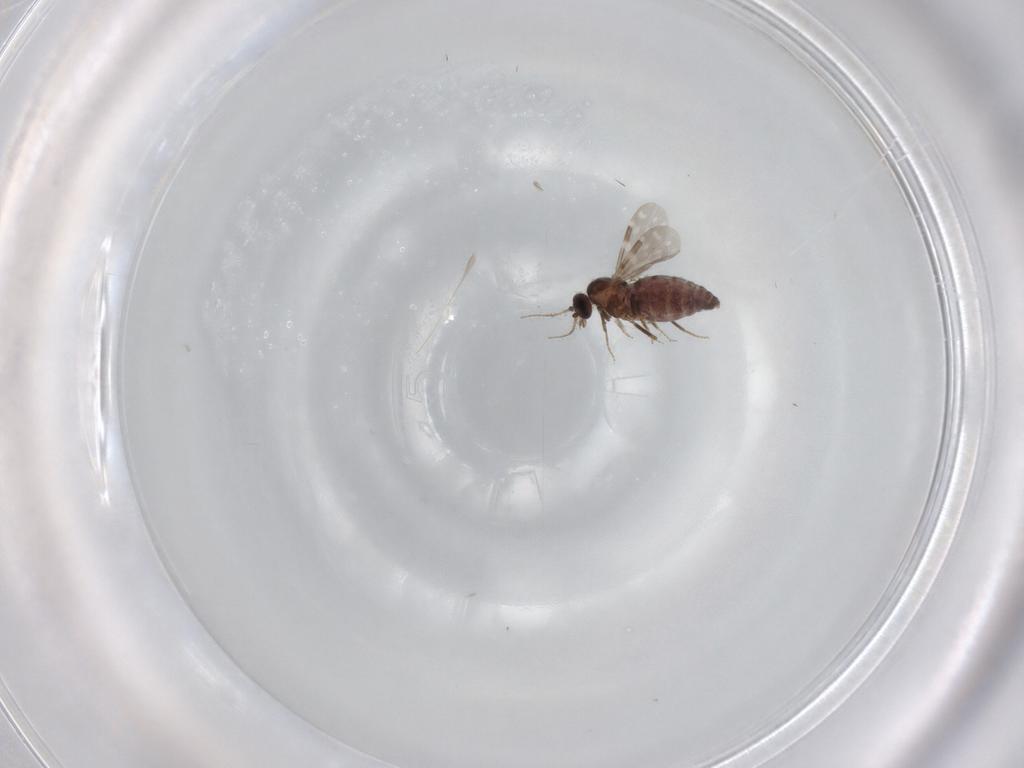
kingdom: Animalia
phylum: Arthropoda
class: Insecta
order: Diptera
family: Ceratopogonidae
